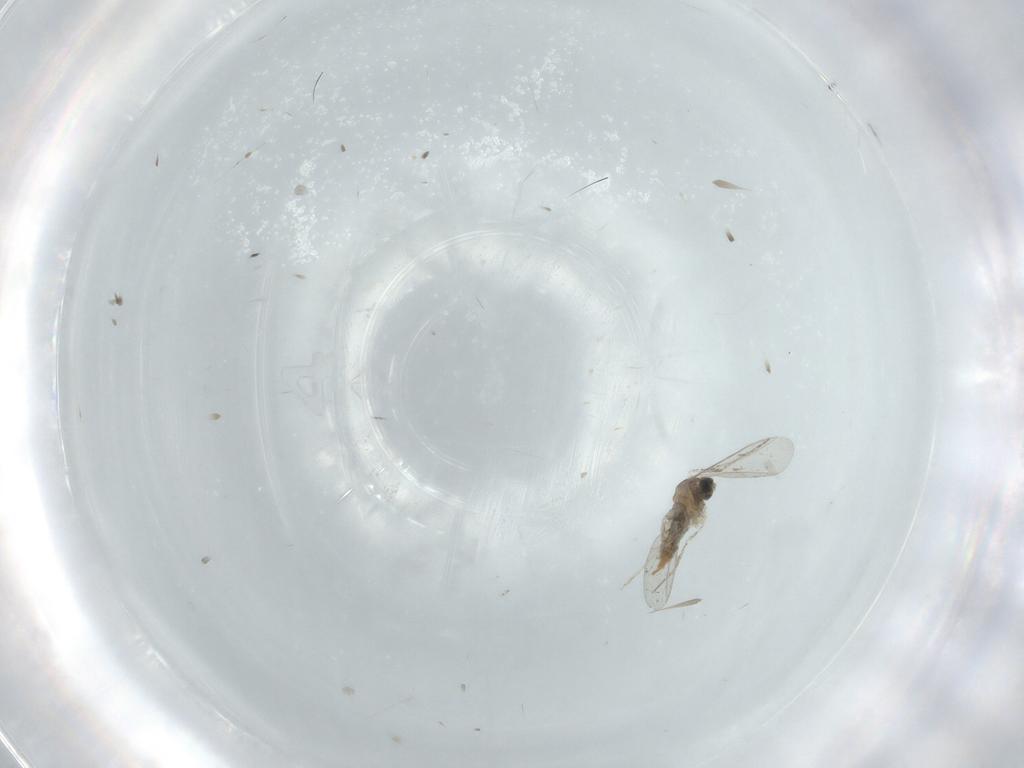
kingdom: Animalia
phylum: Arthropoda
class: Insecta
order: Diptera
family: Cecidomyiidae
